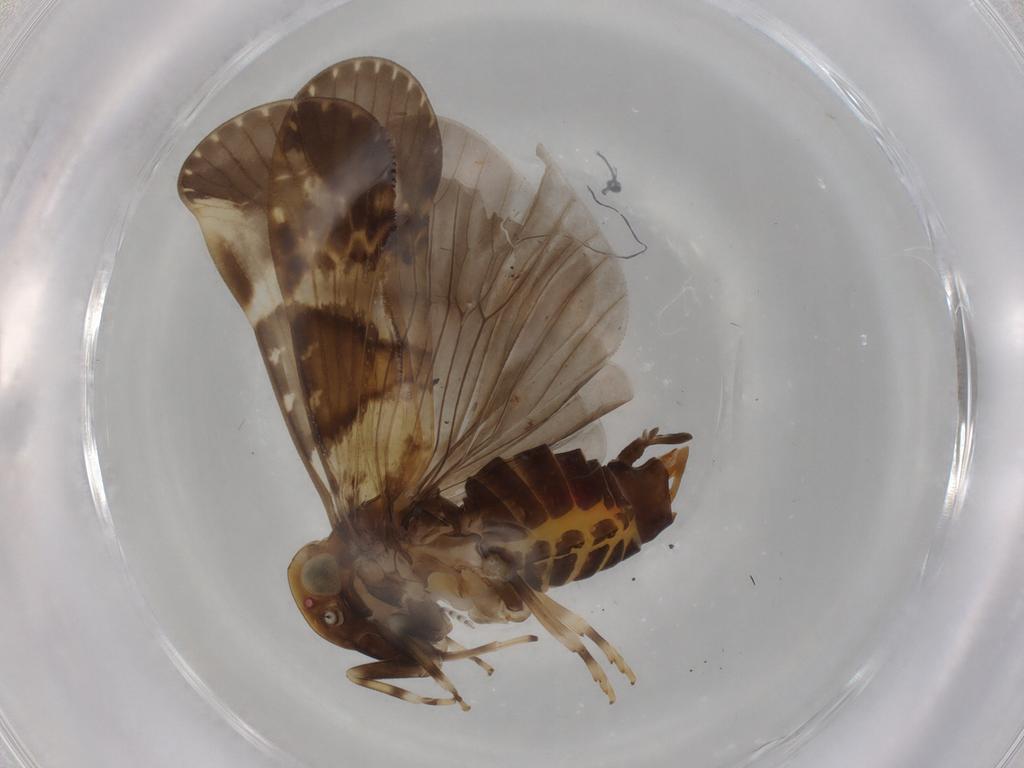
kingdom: Animalia
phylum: Arthropoda
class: Insecta
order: Hemiptera
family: Cixiidae
